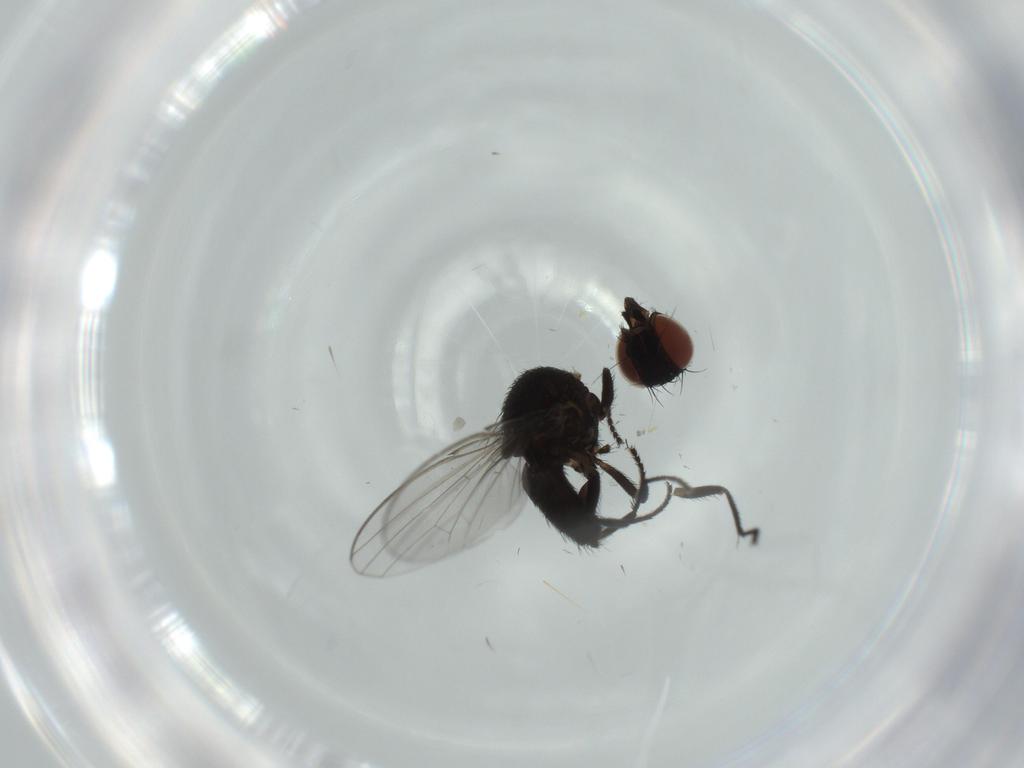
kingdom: Animalia
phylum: Arthropoda
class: Insecta
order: Diptera
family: Milichiidae
